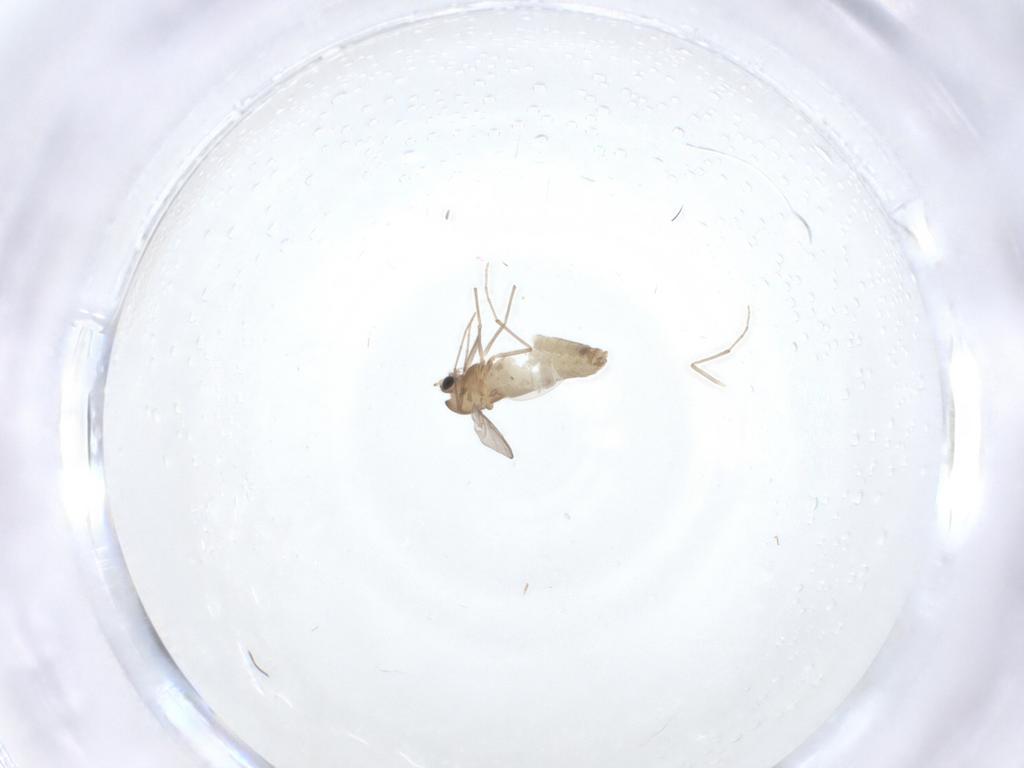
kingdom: Animalia
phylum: Arthropoda
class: Insecta
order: Diptera
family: Chironomidae
